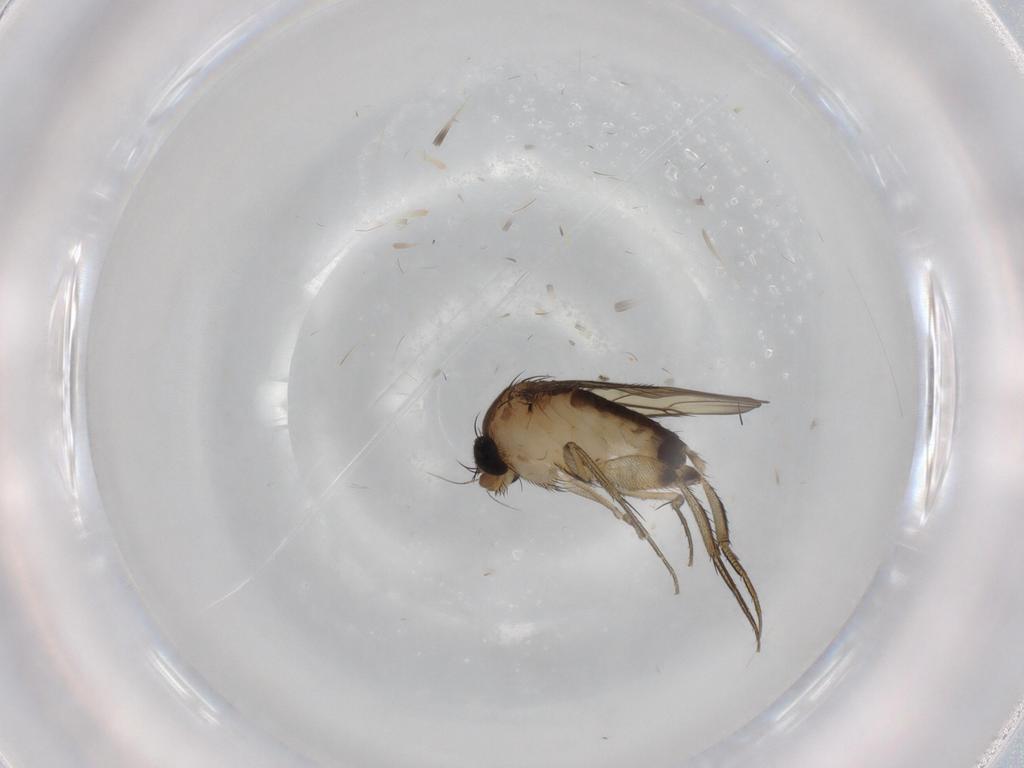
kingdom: Animalia
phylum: Arthropoda
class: Insecta
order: Diptera
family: Phoridae
